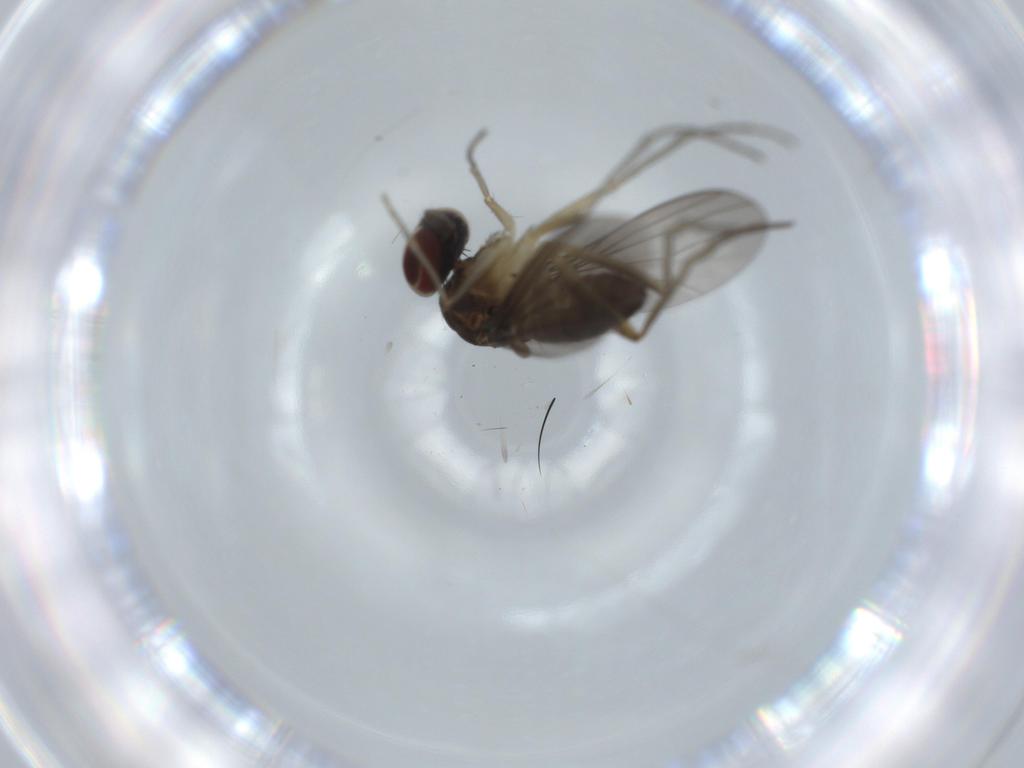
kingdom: Animalia
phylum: Arthropoda
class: Insecta
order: Diptera
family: Dolichopodidae
